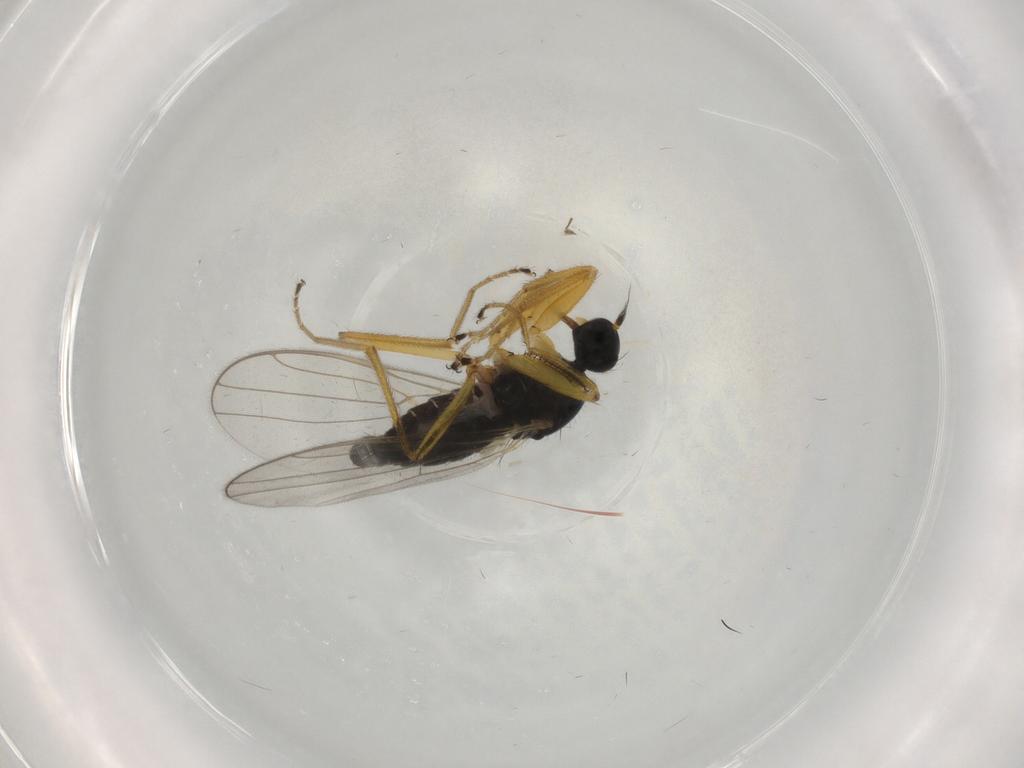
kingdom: Animalia
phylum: Arthropoda
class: Insecta
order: Diptera
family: Hybotidae
